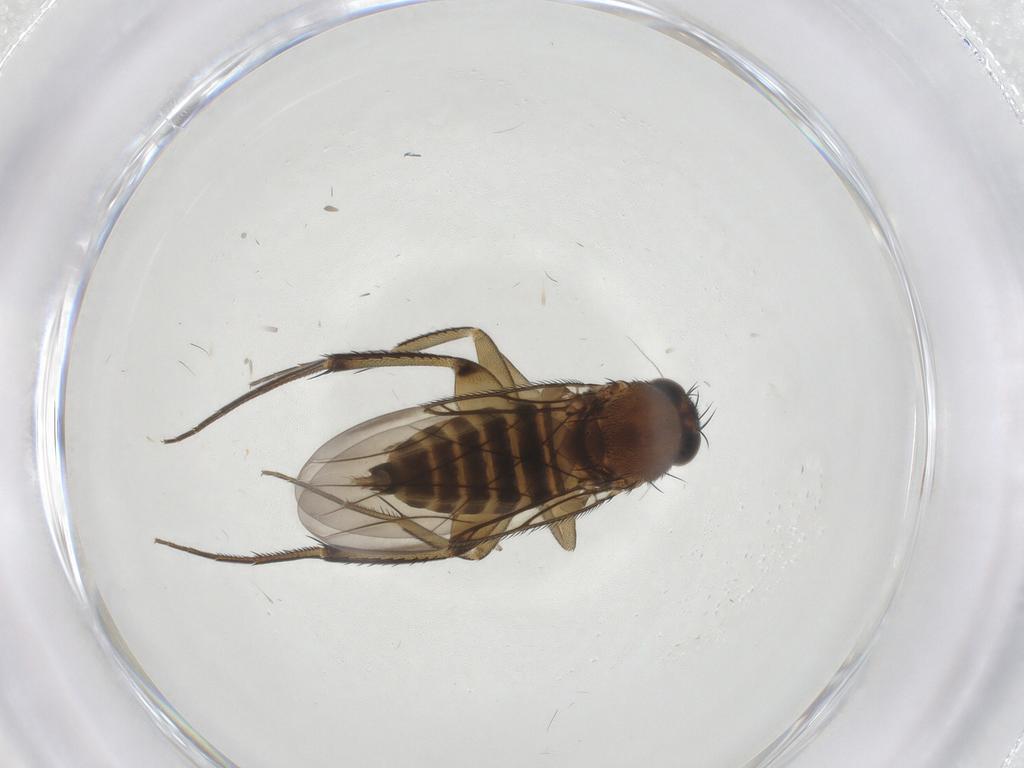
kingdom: Animalia
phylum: Arthropoda
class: Insecta
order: Diptera
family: Phoridae
